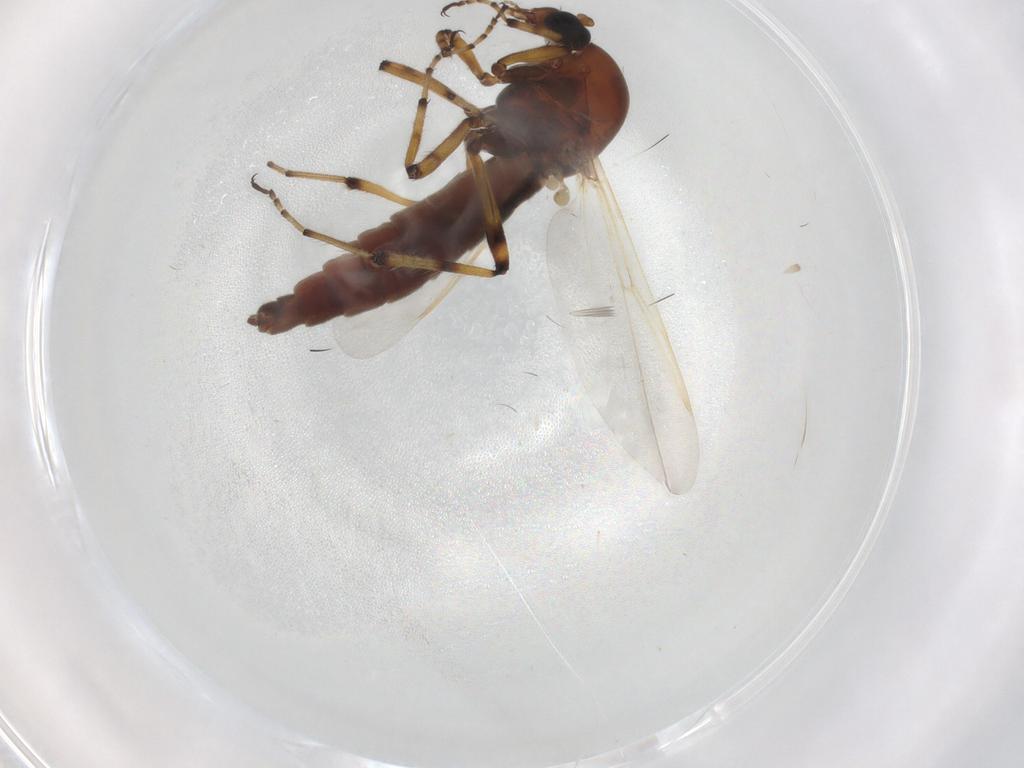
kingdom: Animalia
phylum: Arthropoda
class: Insecta
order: Diptera
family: Ceratopogonidae
